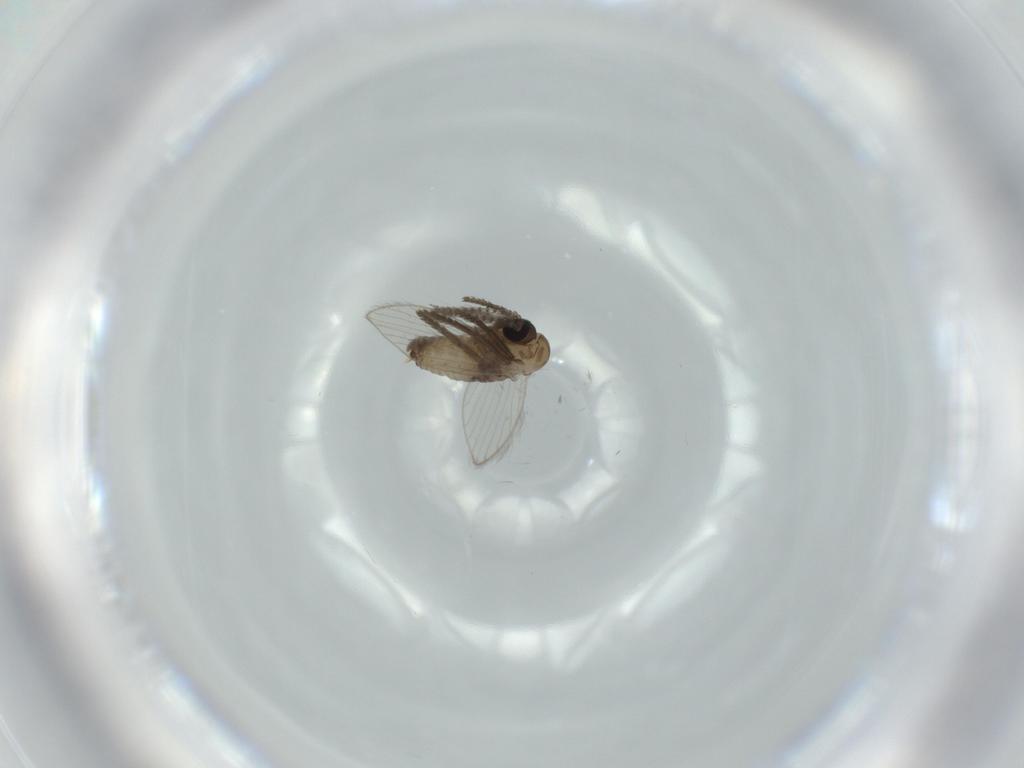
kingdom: Animalia
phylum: Arthropoda
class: Insecta
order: Diptera
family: Psychodidae
